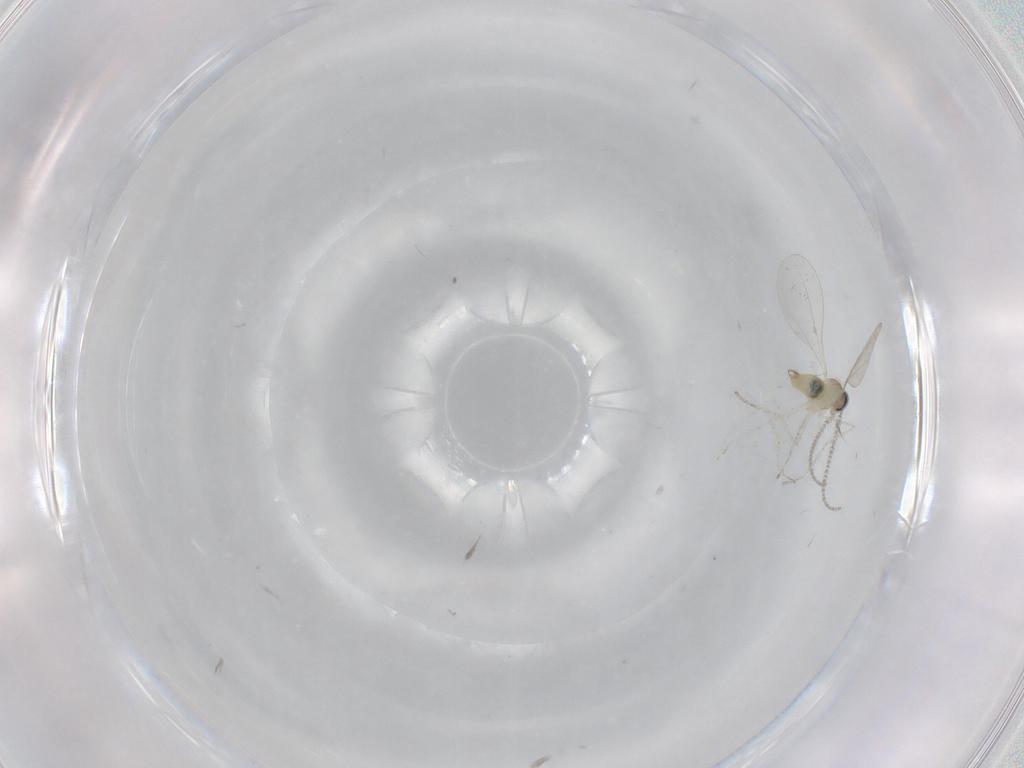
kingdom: Animalia
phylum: Arthropoda
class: Insecta
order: Diptera
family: Cecidomyiidae
